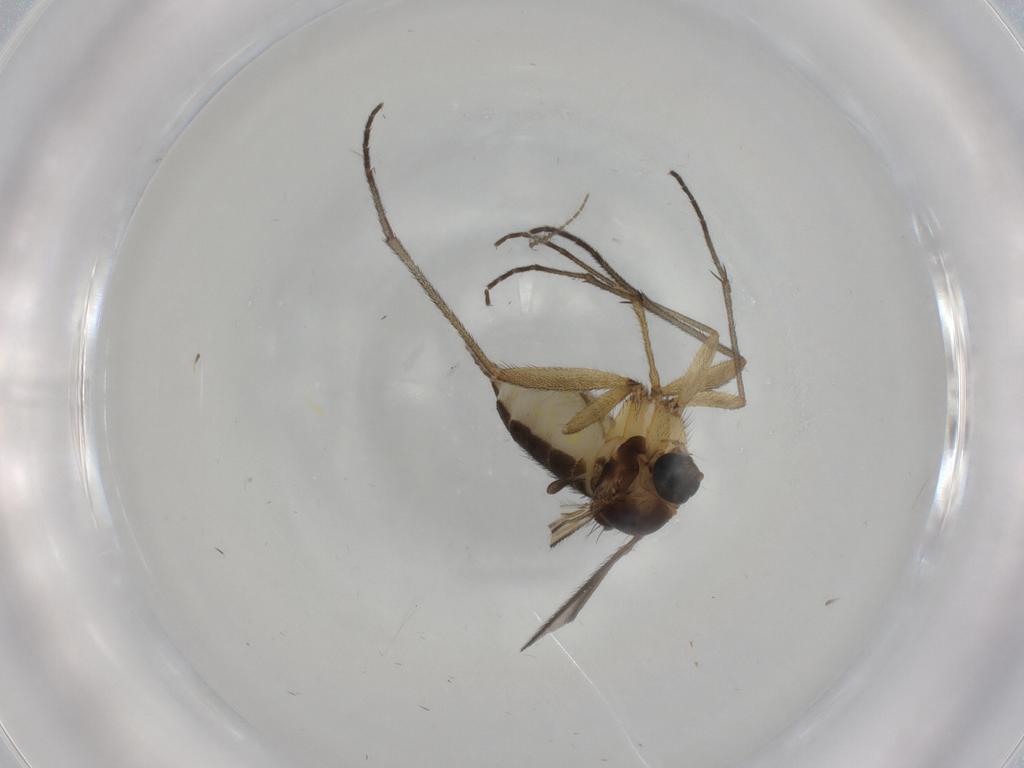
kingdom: Animalia
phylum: Arthropoda
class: Insecta
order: Diptera
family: Sciaridae
